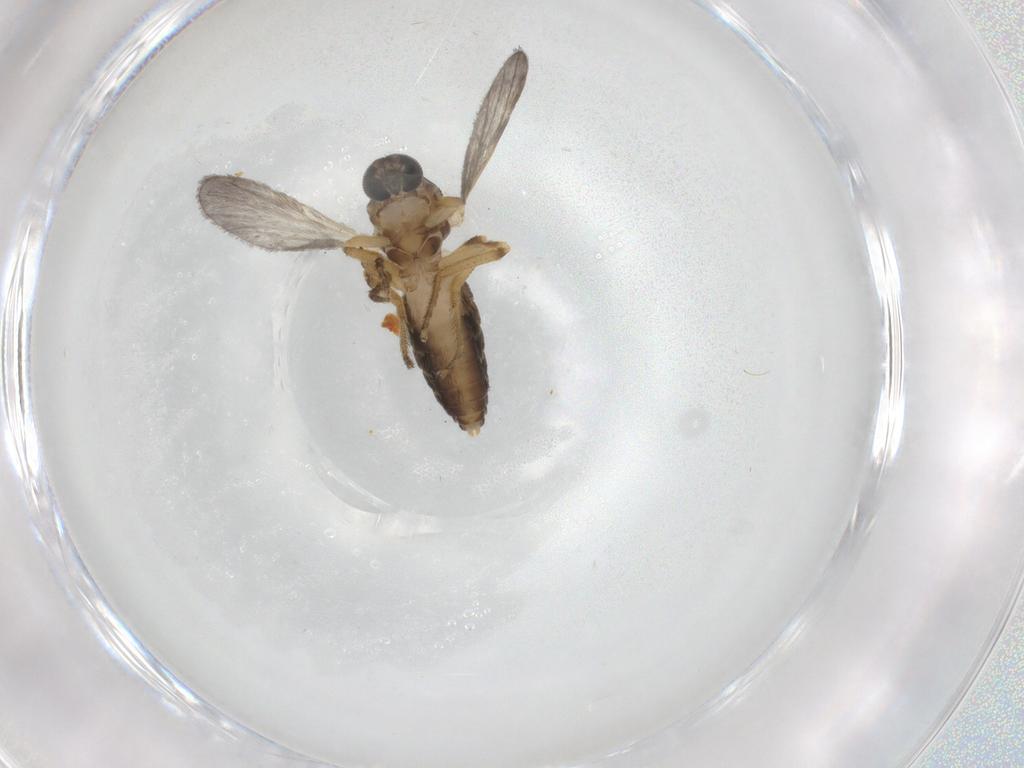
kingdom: Animalia
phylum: Arthropoda
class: Insecta
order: Diptera
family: Ceratopogonidae
